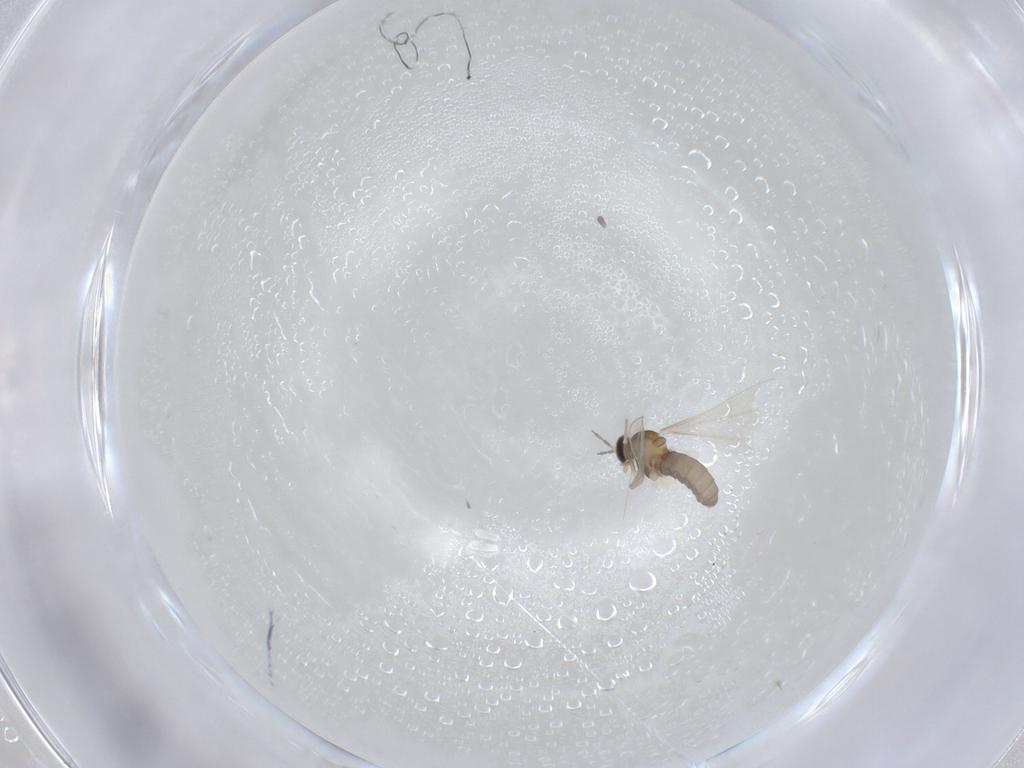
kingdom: Animalia
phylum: Arthropoda
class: Insecta
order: Diptera
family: Cecidomyiidae
